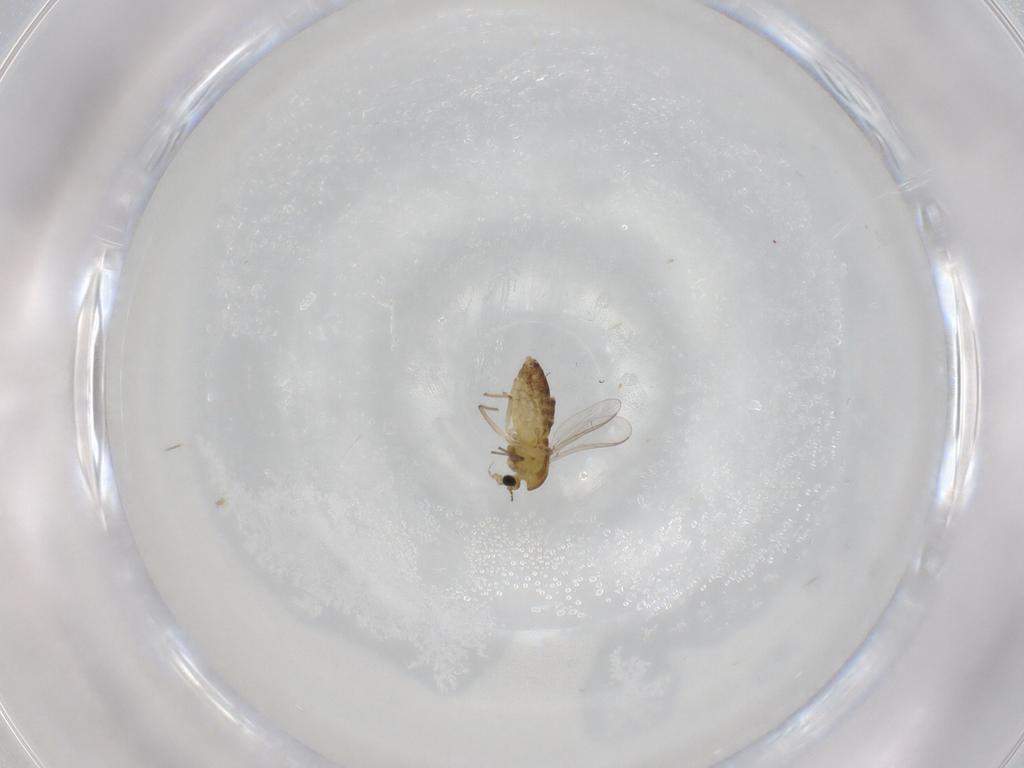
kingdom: Animalia
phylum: Arthropoda
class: Insecta
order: Diptera
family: Chironomidae
